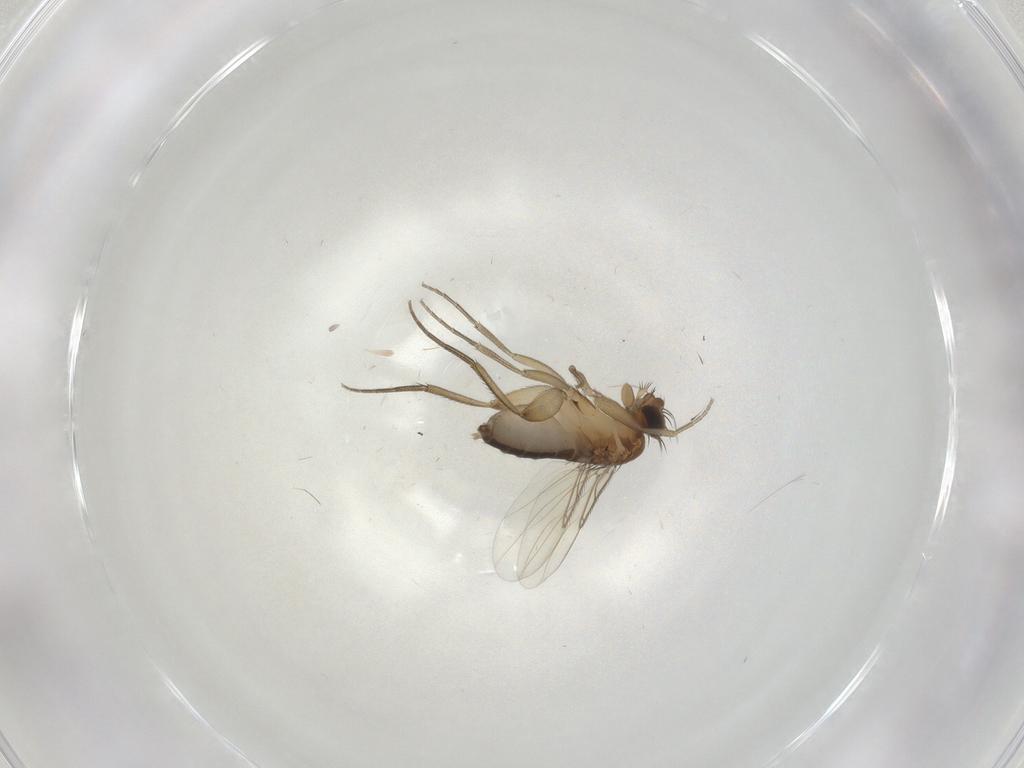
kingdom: Animalia
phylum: Arthropoda
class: Insecta
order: Diptera
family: Phoridae
